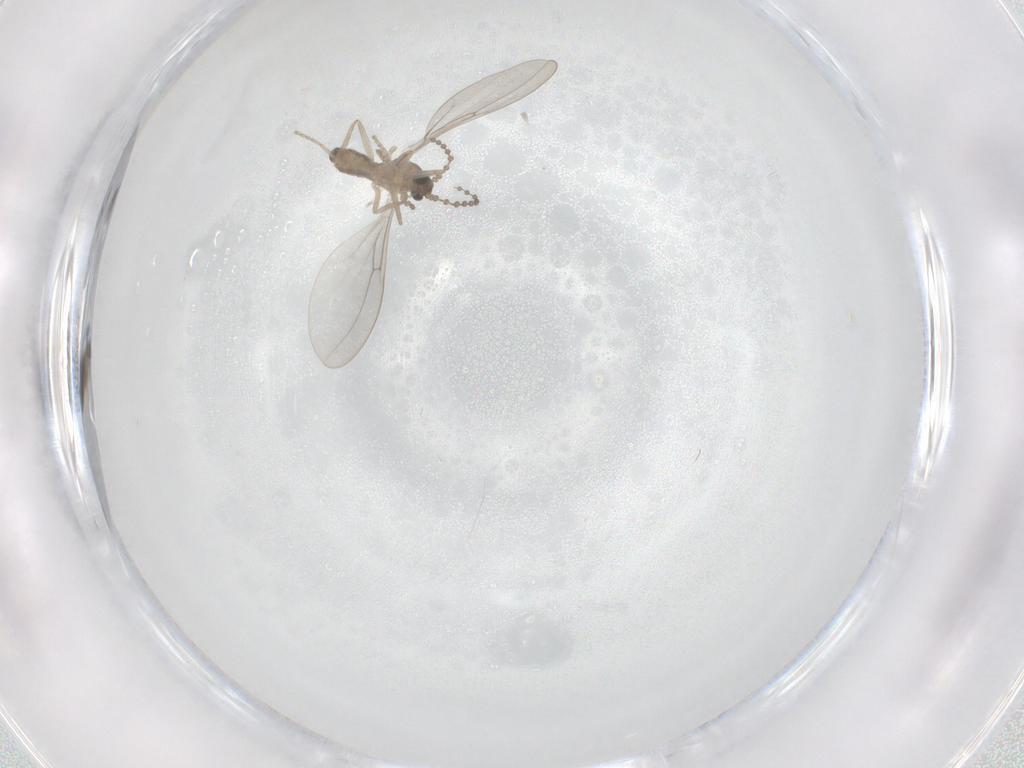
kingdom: Animalia
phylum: Arthropoda
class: Insecta
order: Diptera
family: Cecidomyiidae
